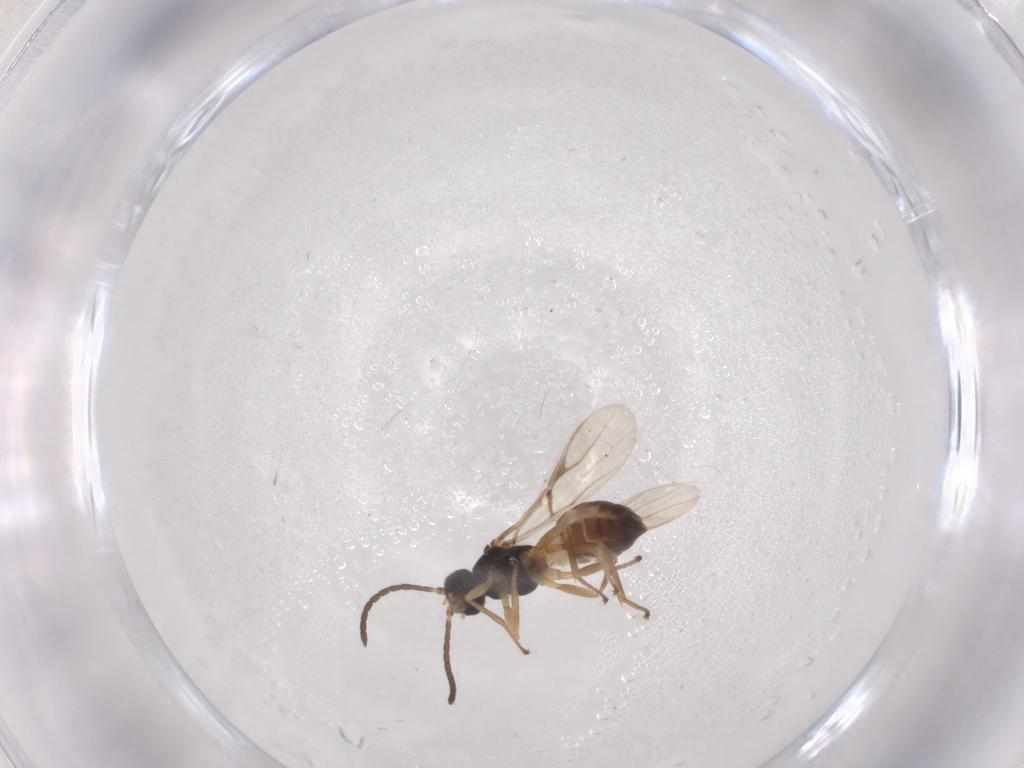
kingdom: Animalia
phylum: Arthropoda
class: Insecta
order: Hymenoptera
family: Braconidae
